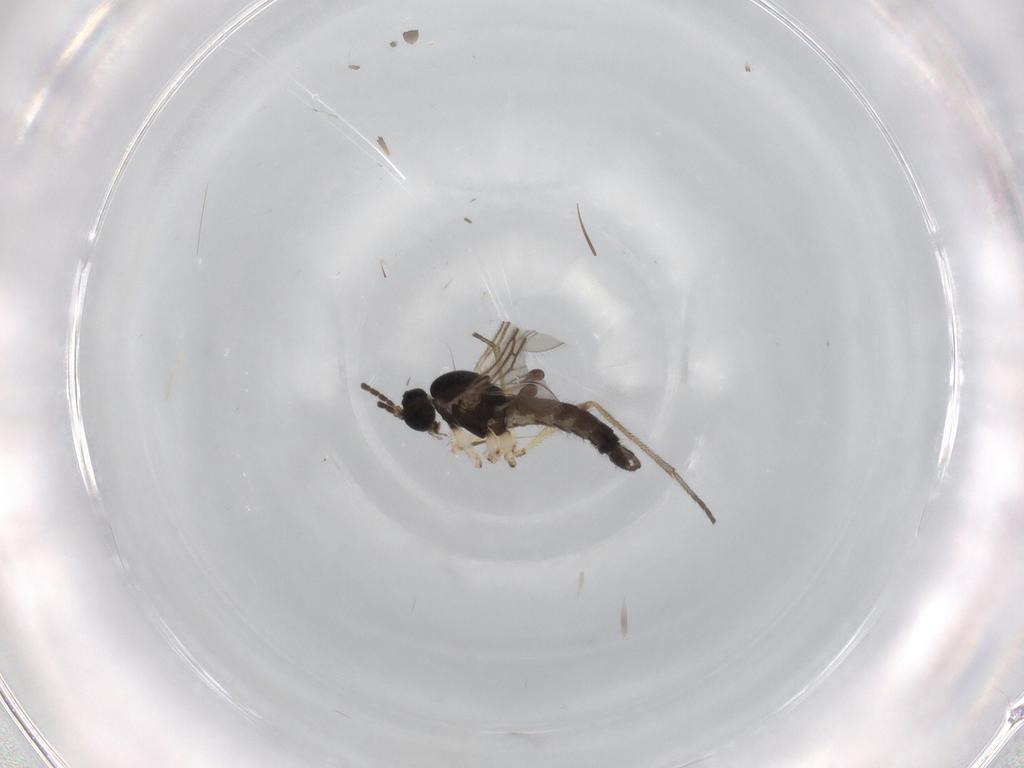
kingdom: Animalia
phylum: Arthropoda
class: Insecta
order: Diptera
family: Sciaridae
